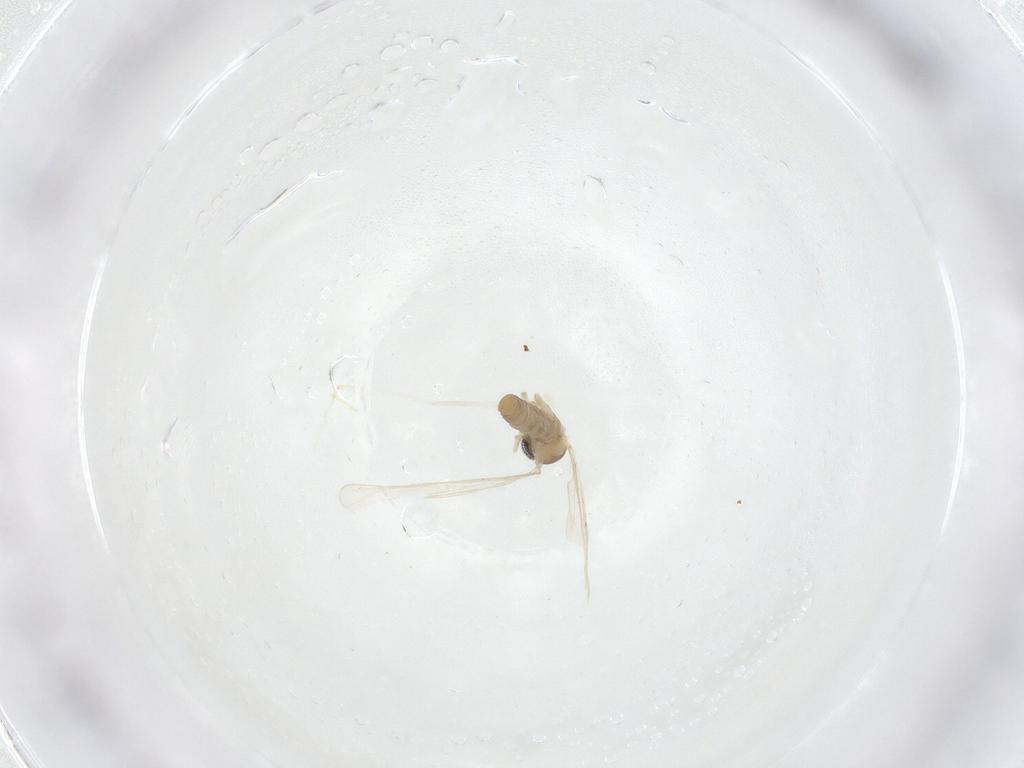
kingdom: Animalia
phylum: Arthropoda
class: Insecta
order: Diptera
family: Cecidomyiidae
